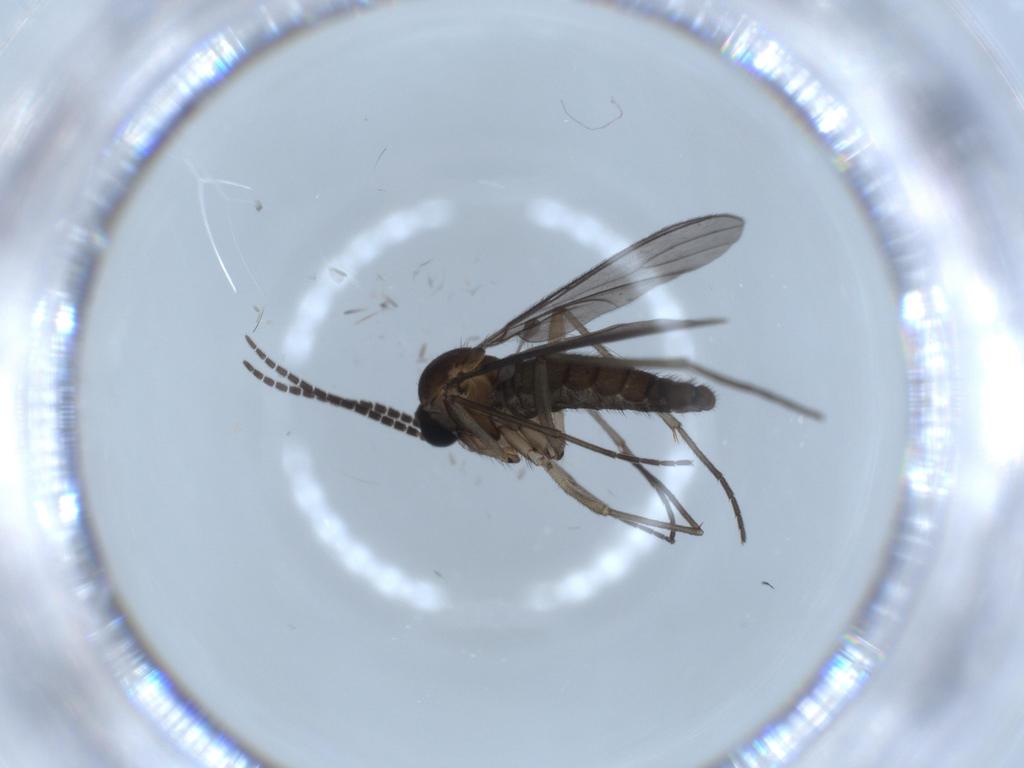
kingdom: Animalia
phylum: Arthropoda
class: Insecta
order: Diptera
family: Sciaridae
